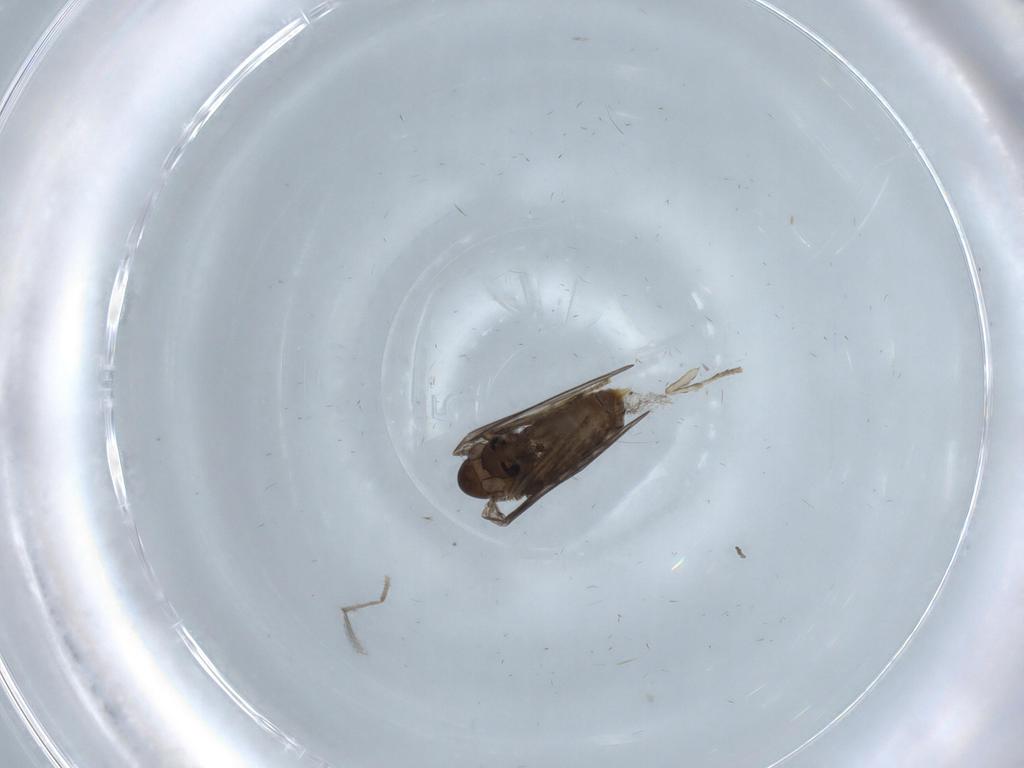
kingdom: Animalia
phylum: Arthropoda
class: Insecta
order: Diptera
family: Psychodidae
